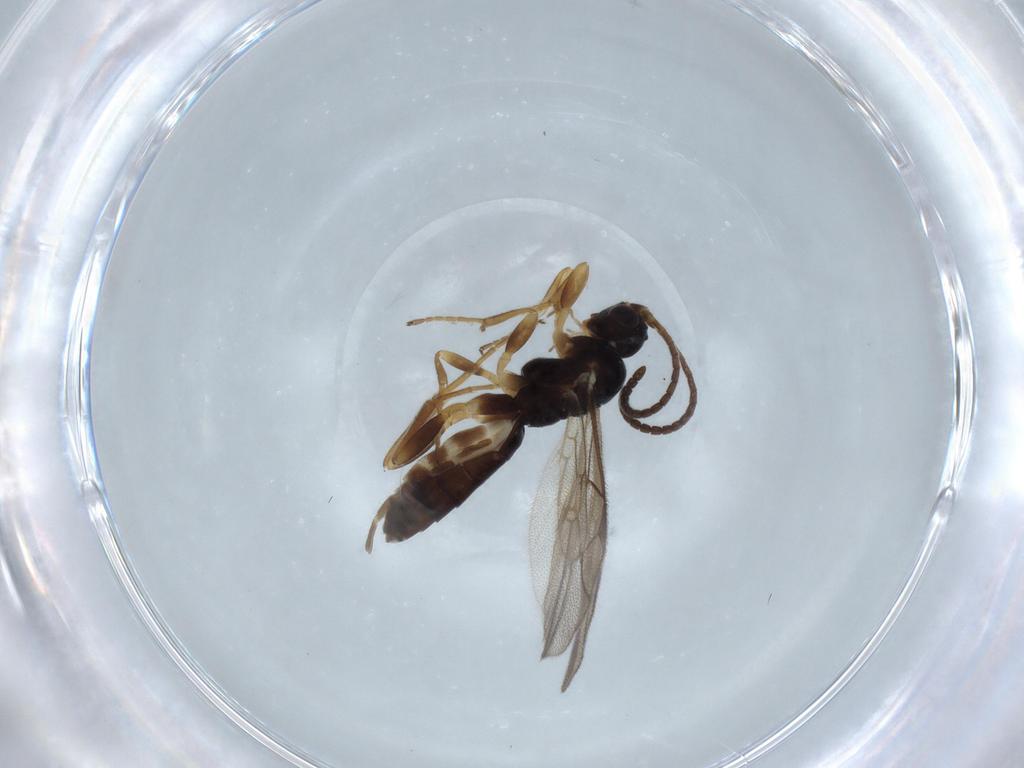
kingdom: Animalia
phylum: Arthropoda
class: Insecta
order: Hymenoptera
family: Ichneumonidae
